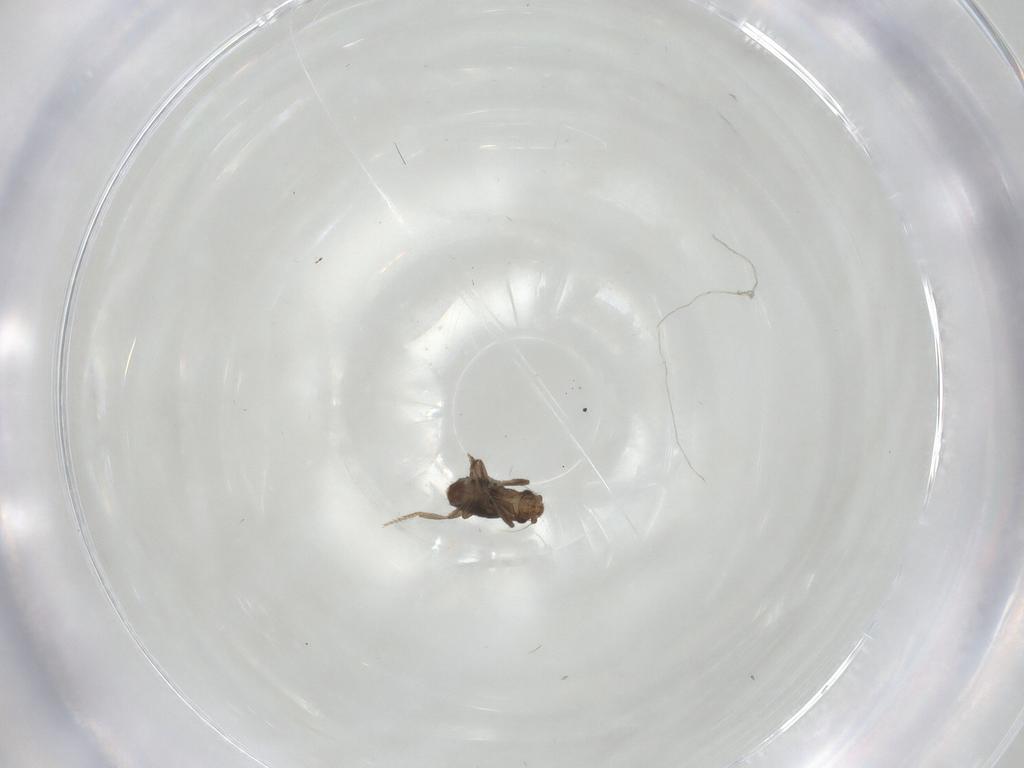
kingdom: Animalia
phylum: Arthropoda
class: Insecta
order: Diptera
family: Phoridae
